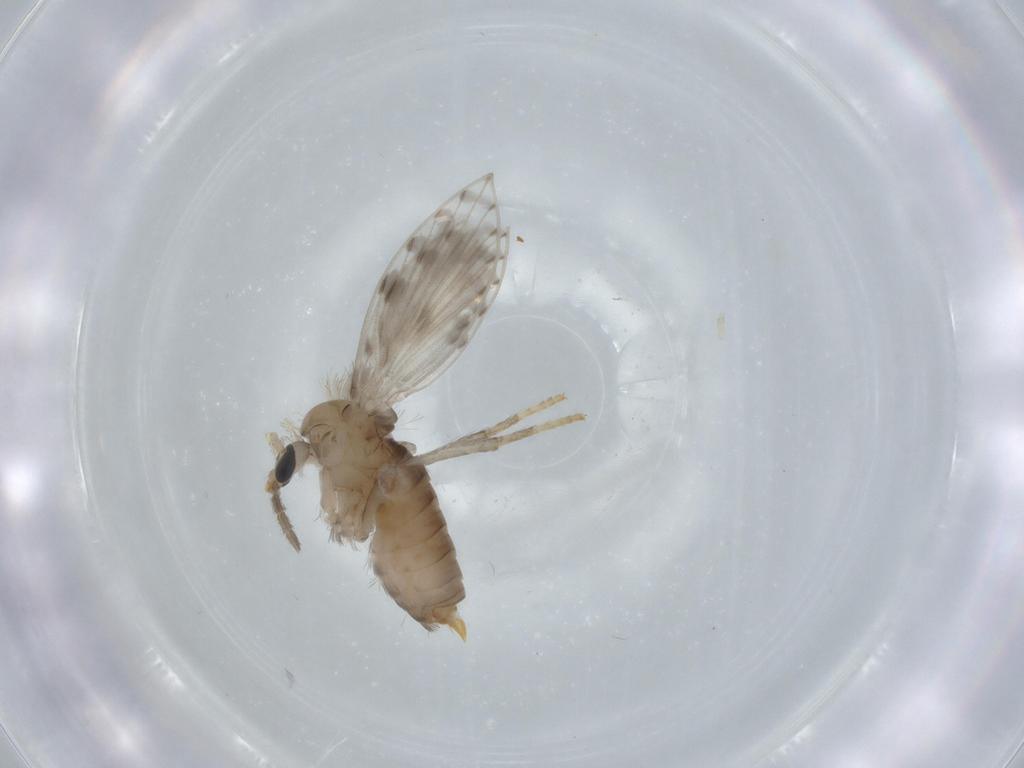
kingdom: Animalia
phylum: Arthropoda
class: Insecta
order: Diptera
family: Psychodidae
